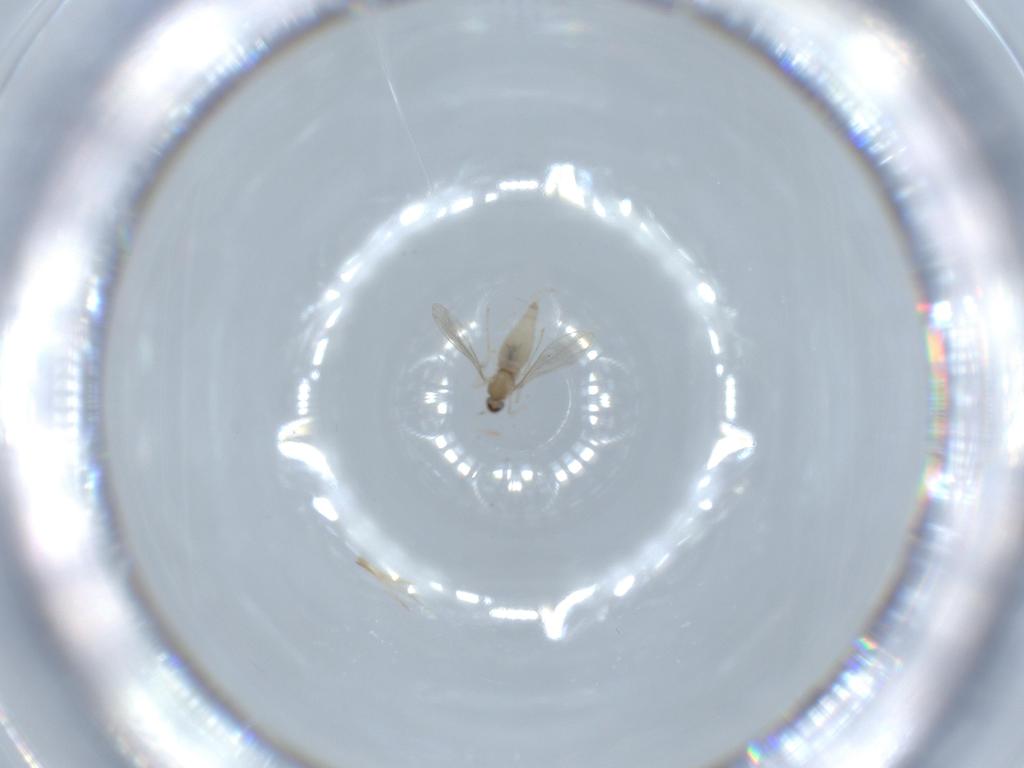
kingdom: Animalia
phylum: Arthropoda
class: Insecta
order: Diptera
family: Cecidomyiidae
